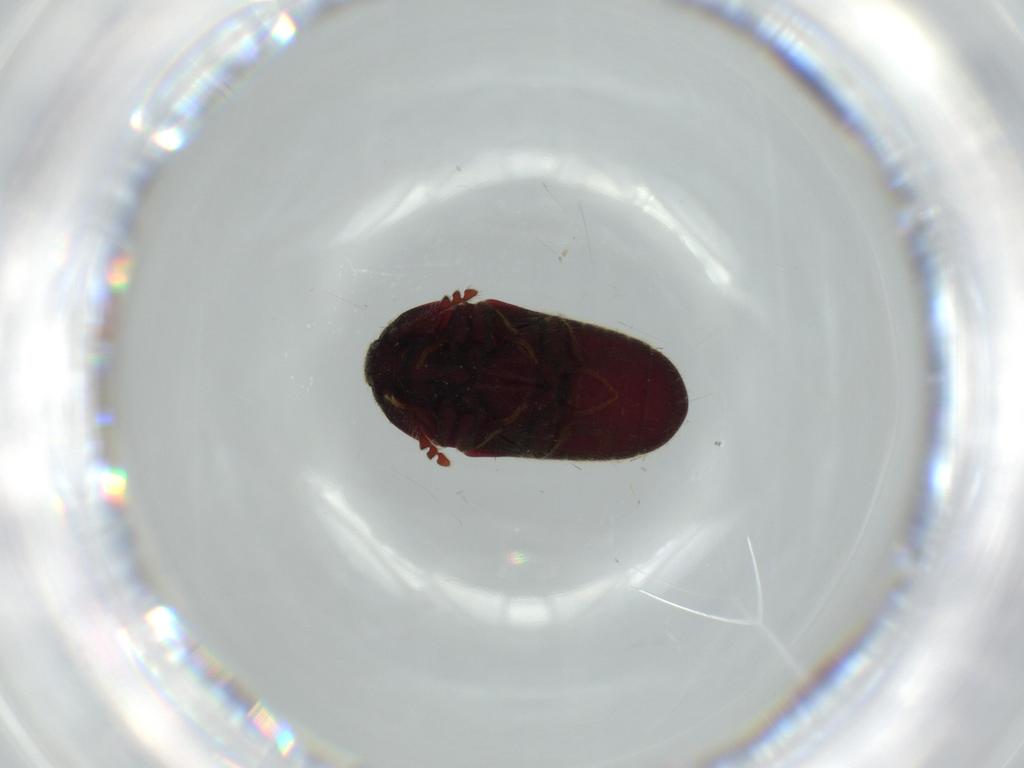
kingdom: Animalia
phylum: Arthropoda
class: Insecta
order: Coleoptera
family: Throscidae
